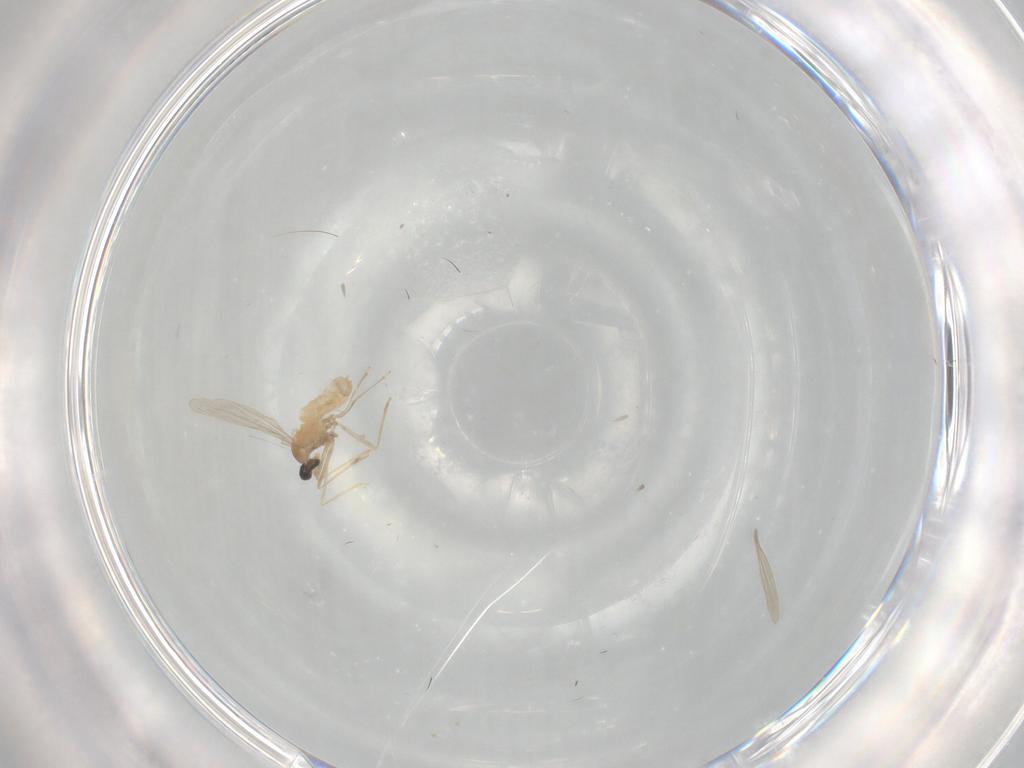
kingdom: Animalia
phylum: Arthropoda
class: Insecta
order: Diptera
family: Cecidomyiidae
